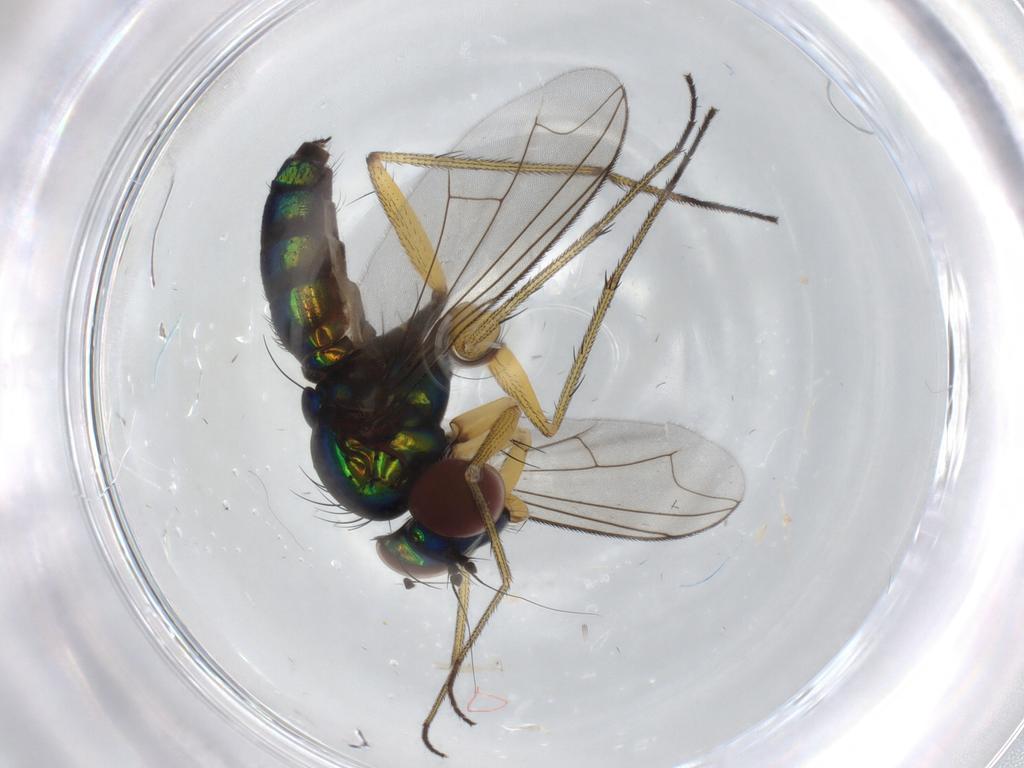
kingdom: Animalia
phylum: Arthropoda
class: Insecta
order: Diptera
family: Dolichopodidae
